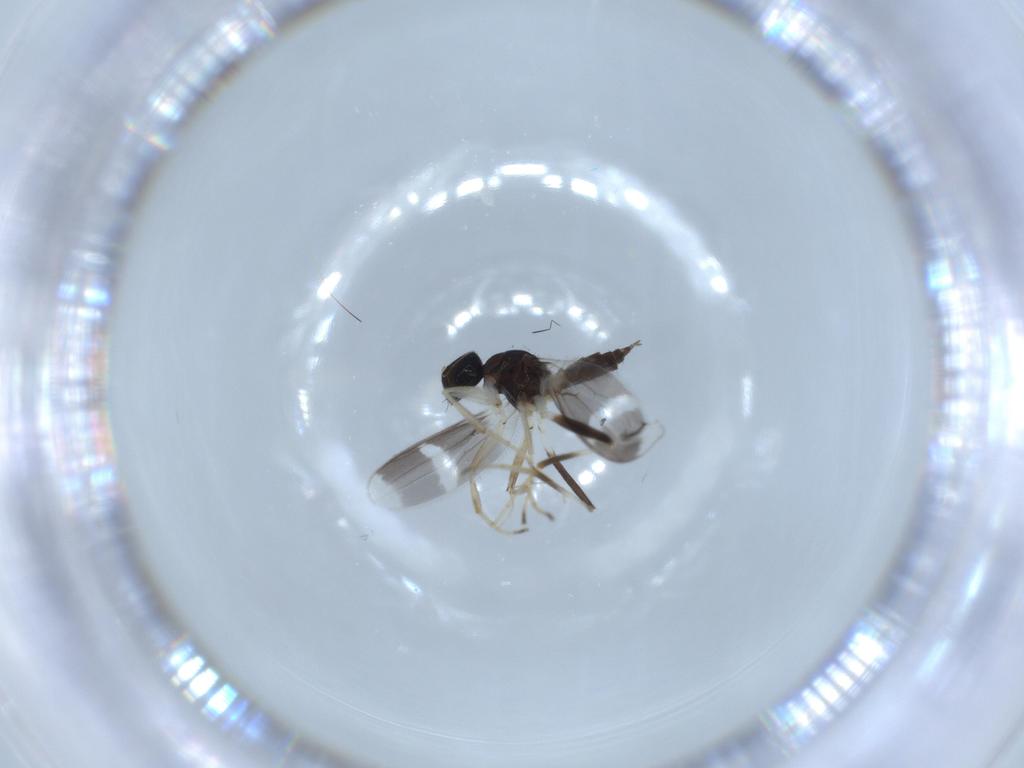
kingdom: Animalia
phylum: Arthropoda
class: Insecta
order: Diptera
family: Hybotidae
